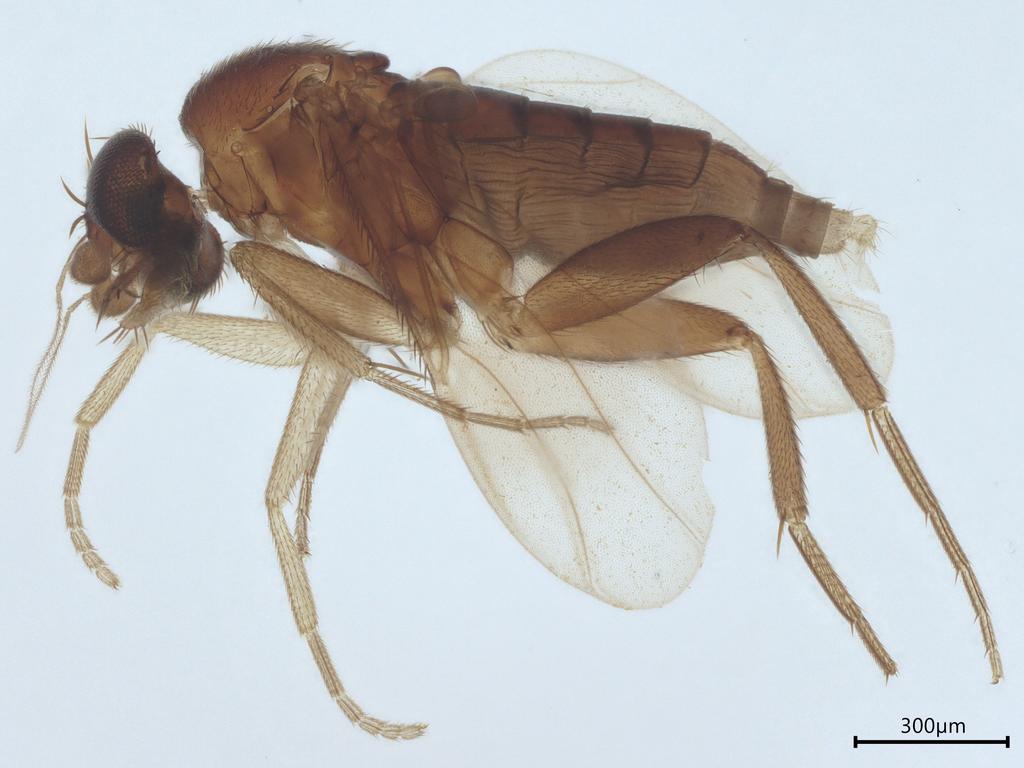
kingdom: Animalia
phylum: Arthropoda
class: Insecta
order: Diptera
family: Phoridae
